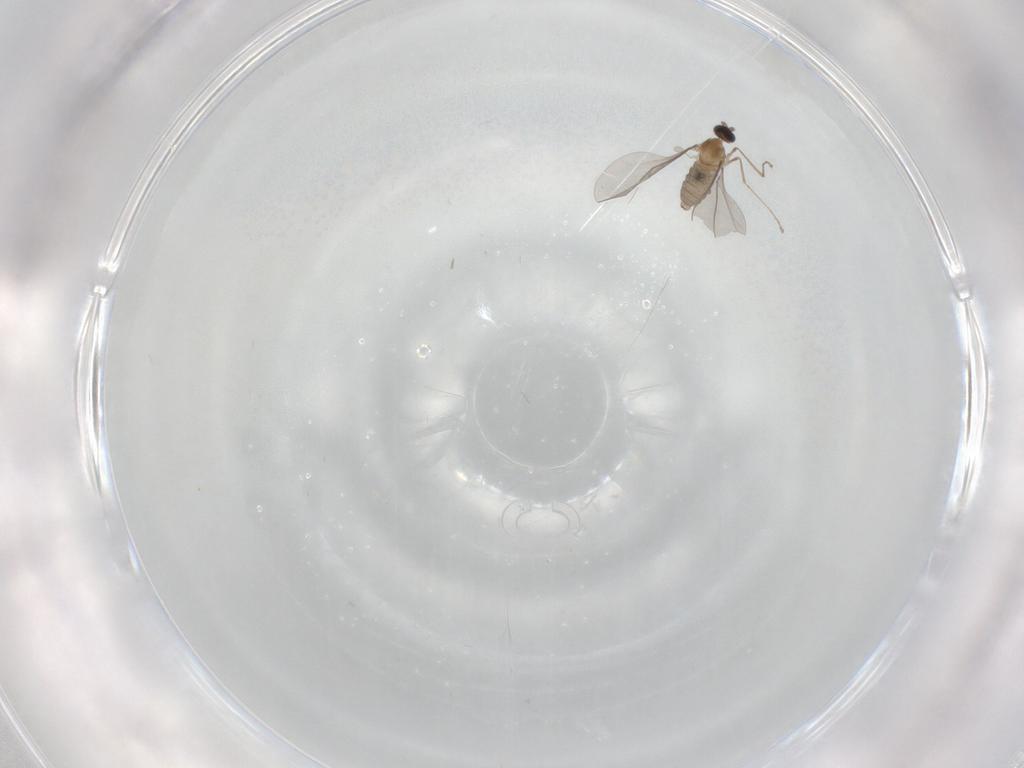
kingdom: Animalia
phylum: Arthropoda
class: Insecta
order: Diptera
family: Cecidomyiidae
